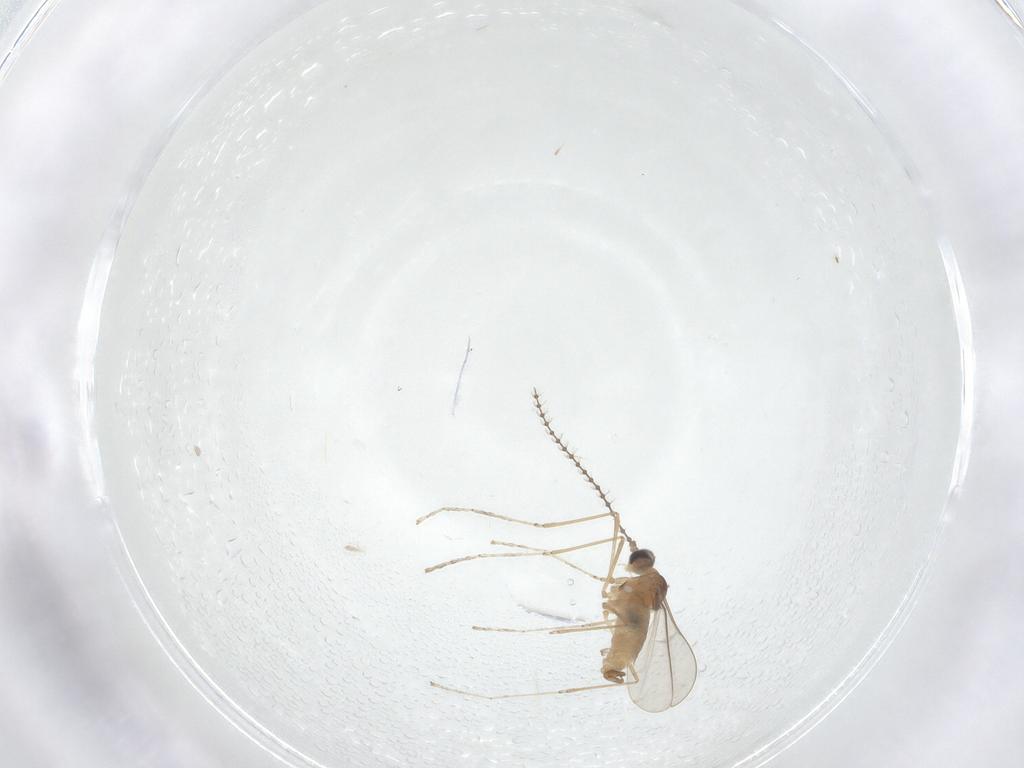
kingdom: Animalia
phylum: Arthropoda
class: Insecta
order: Diptera
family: Cecidomyiidae
